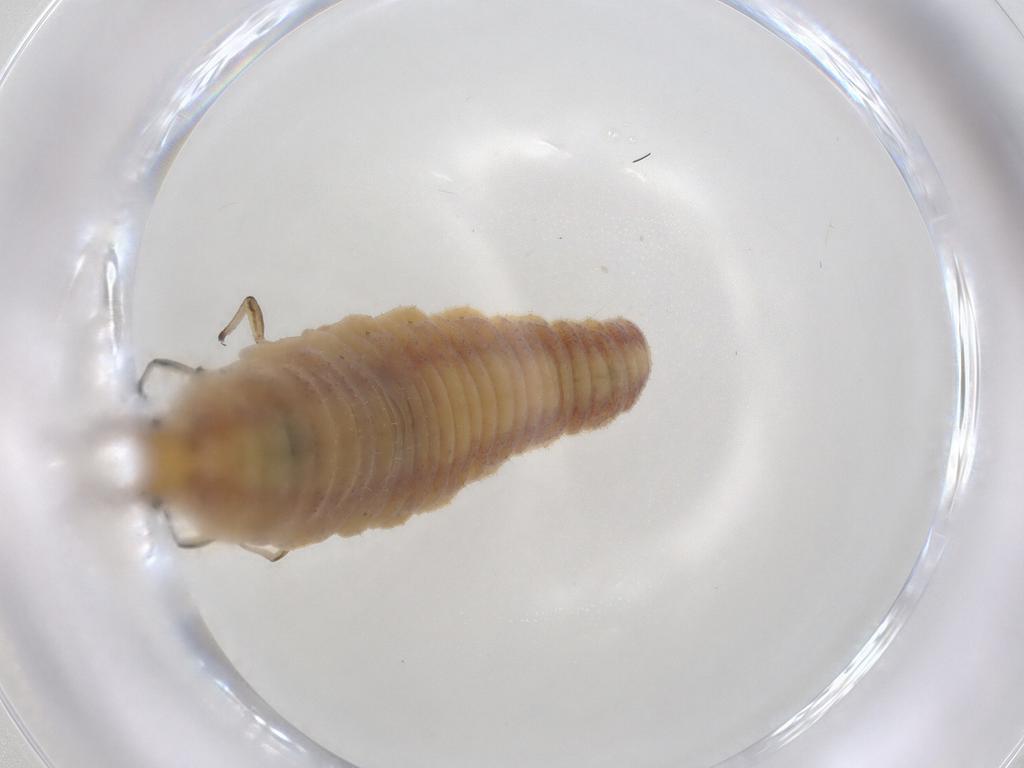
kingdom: Animalia
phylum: Arthropoda
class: Insecta
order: Neuroptera
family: Chrysopidae
